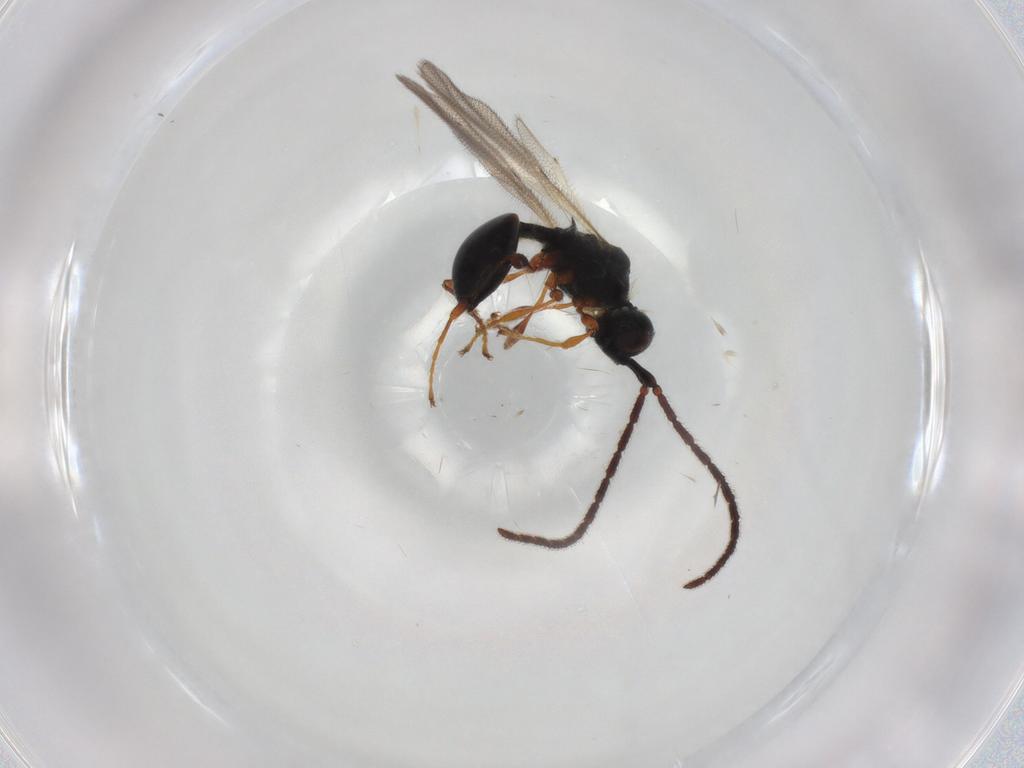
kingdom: Animalia
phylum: Arthropoda
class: Insecta
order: Hymenoptera
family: Diapriidae
